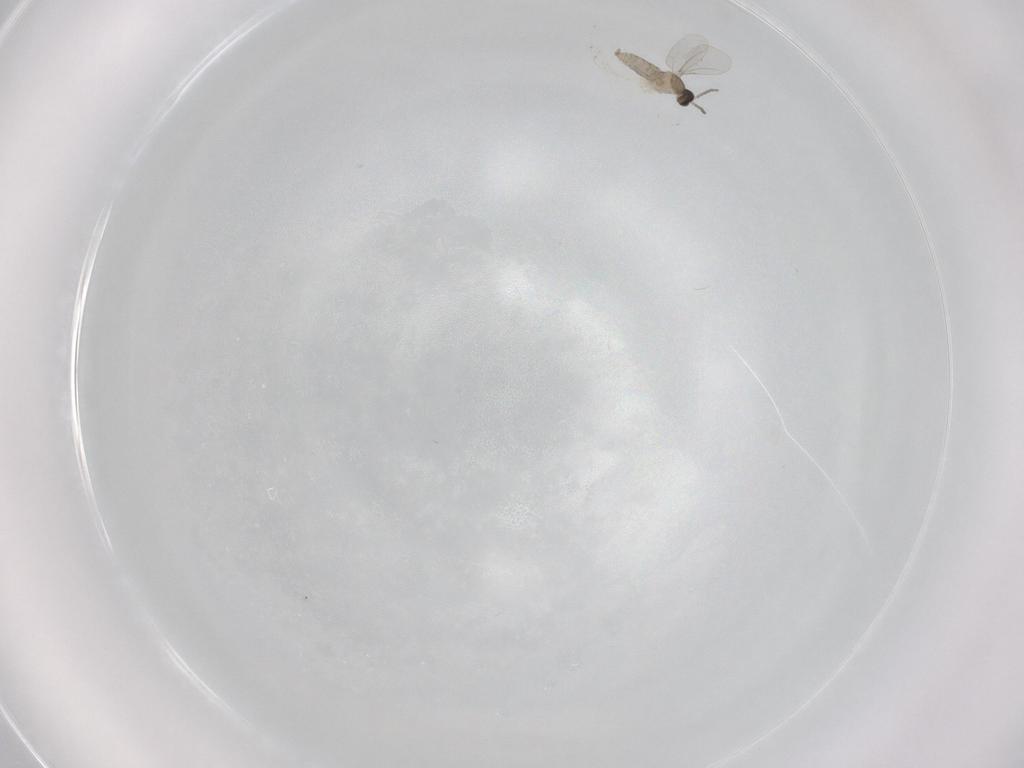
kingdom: Animalia
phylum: Arthropoda
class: Insecta
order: Diptera
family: Cecidomyiidae
